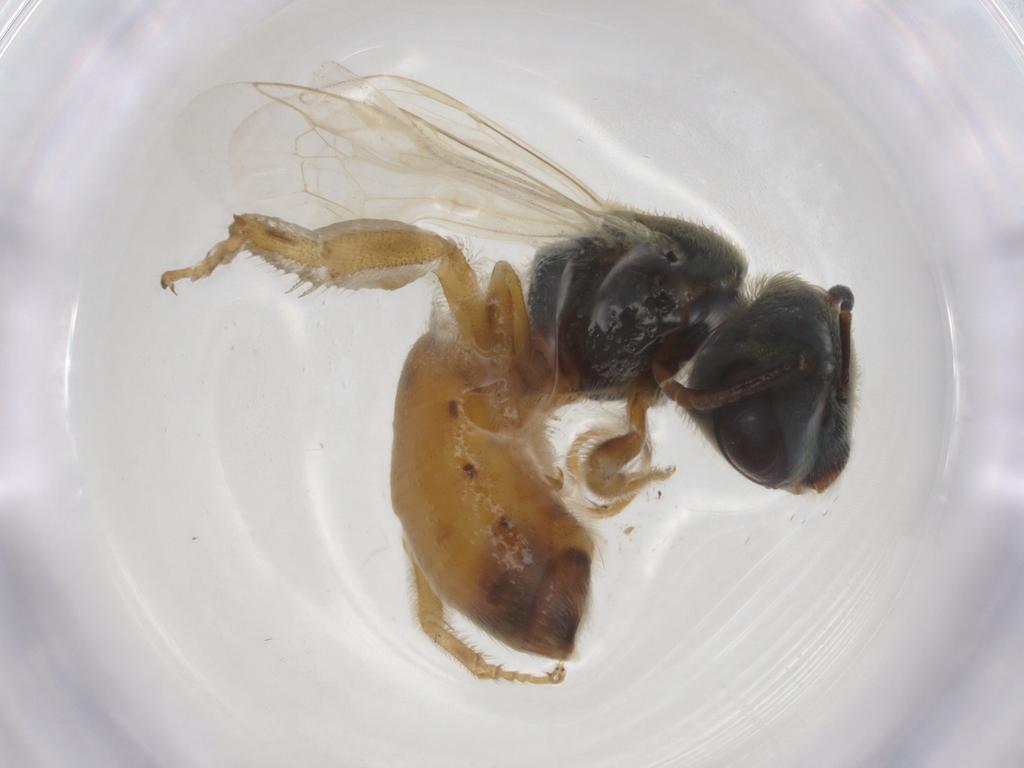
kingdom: Animalia
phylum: Arthropoda
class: Insecta
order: Hymenoptera
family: Halictidae
